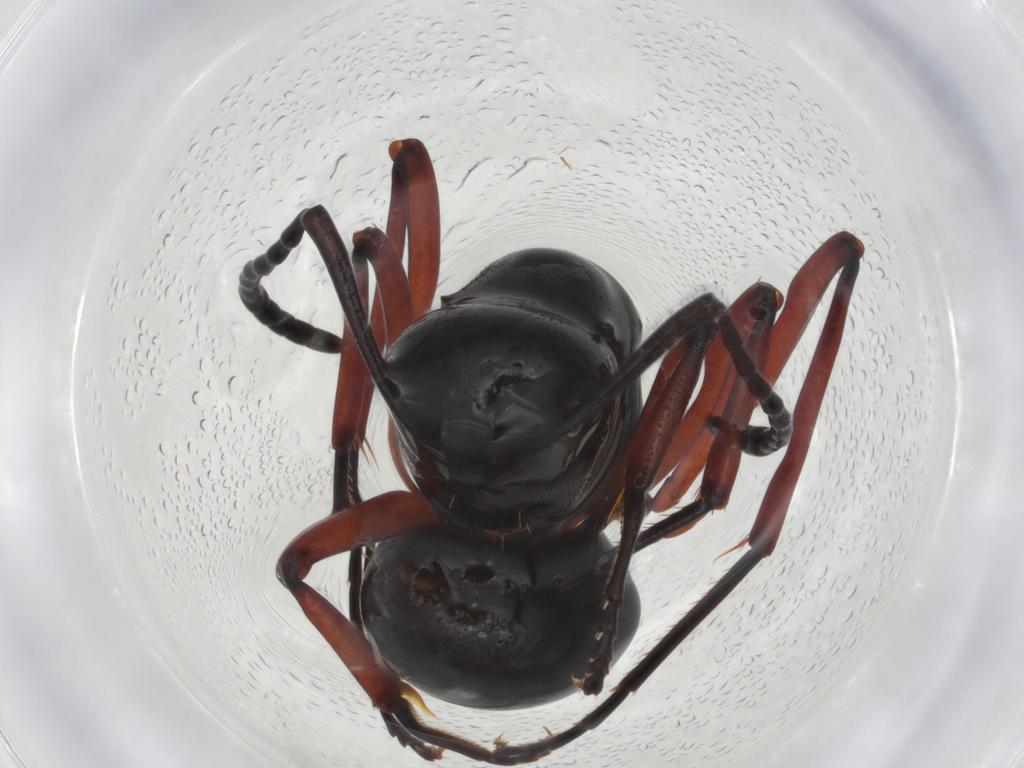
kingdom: Animalia
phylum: Arthropoda
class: Insecta
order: Hymenoptera
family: Formicidae
